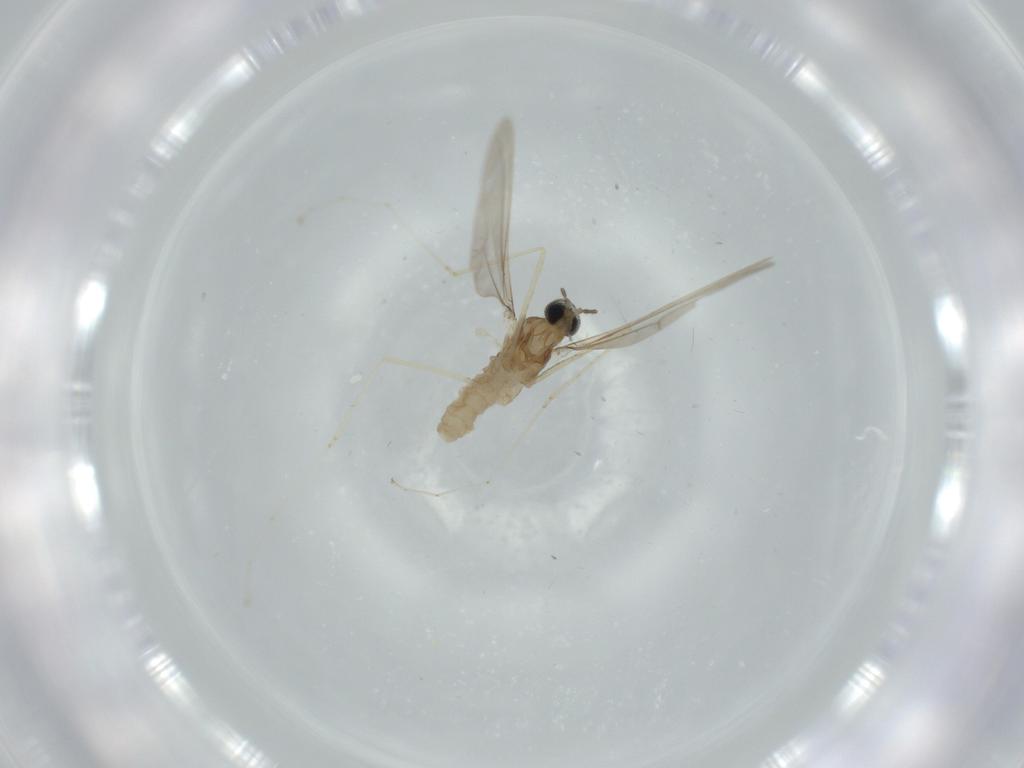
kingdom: Animalia
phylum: Arthropoda
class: Insecta
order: Diptera
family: Cecidomyiidae
